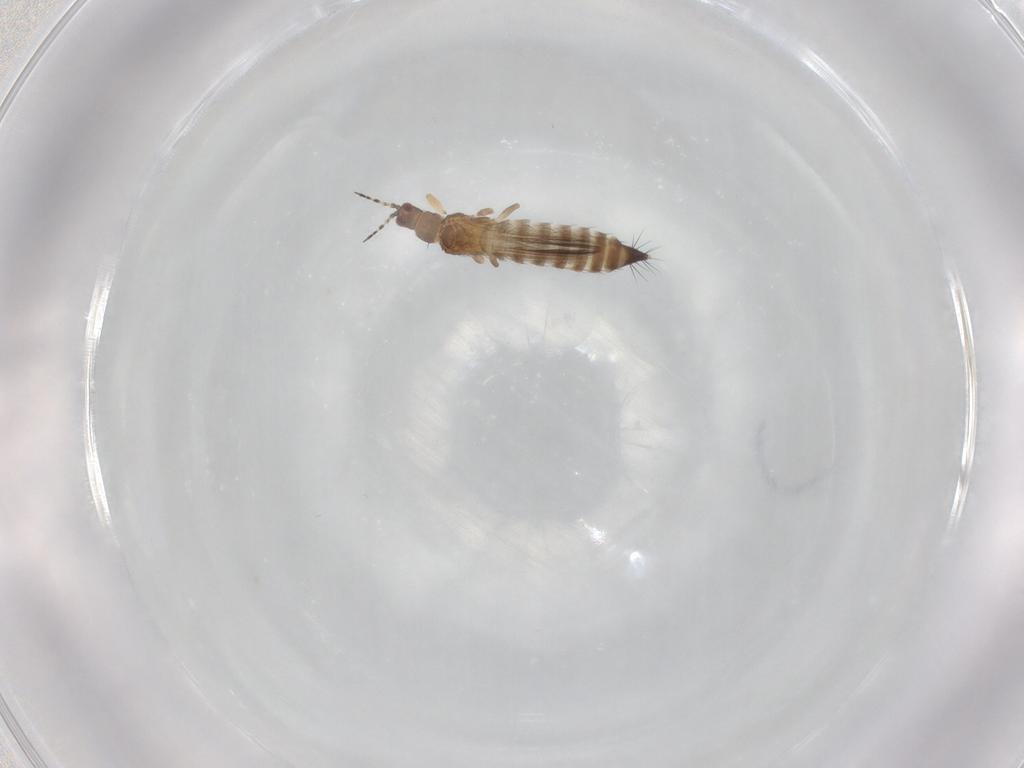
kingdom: Animalia
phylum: Arthropoda
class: Insecta
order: Thysanoptera
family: Thripidae
